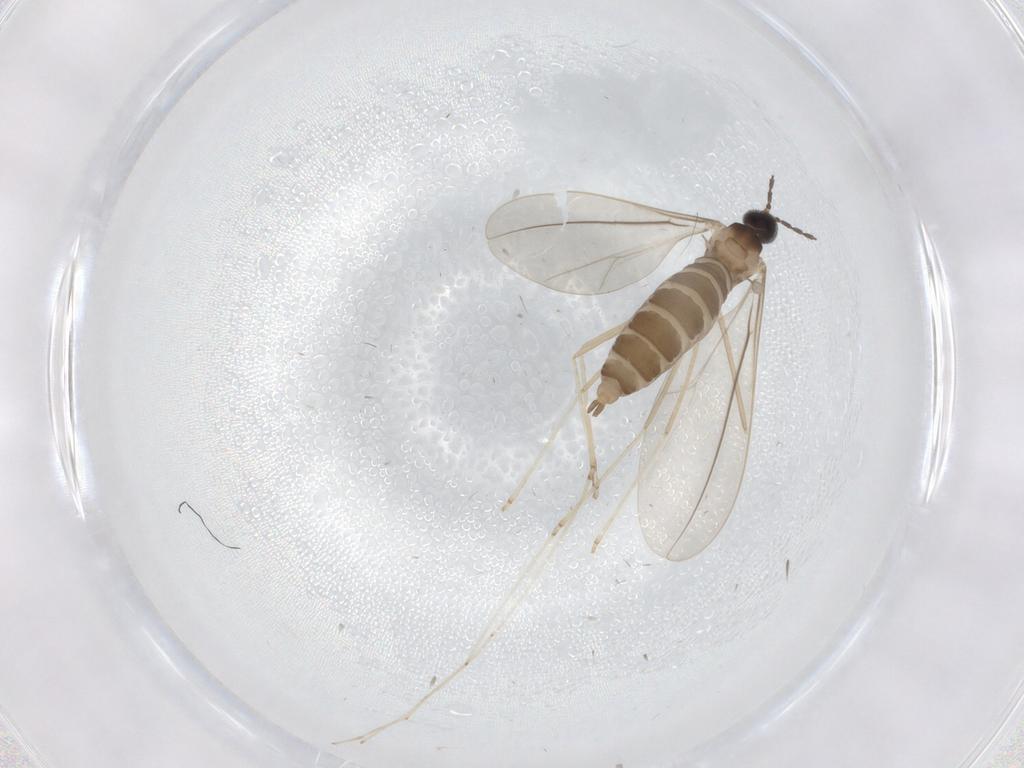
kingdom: Animalia
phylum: Arthropoda
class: Insecta
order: Diptera
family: Cecidomyiidae
